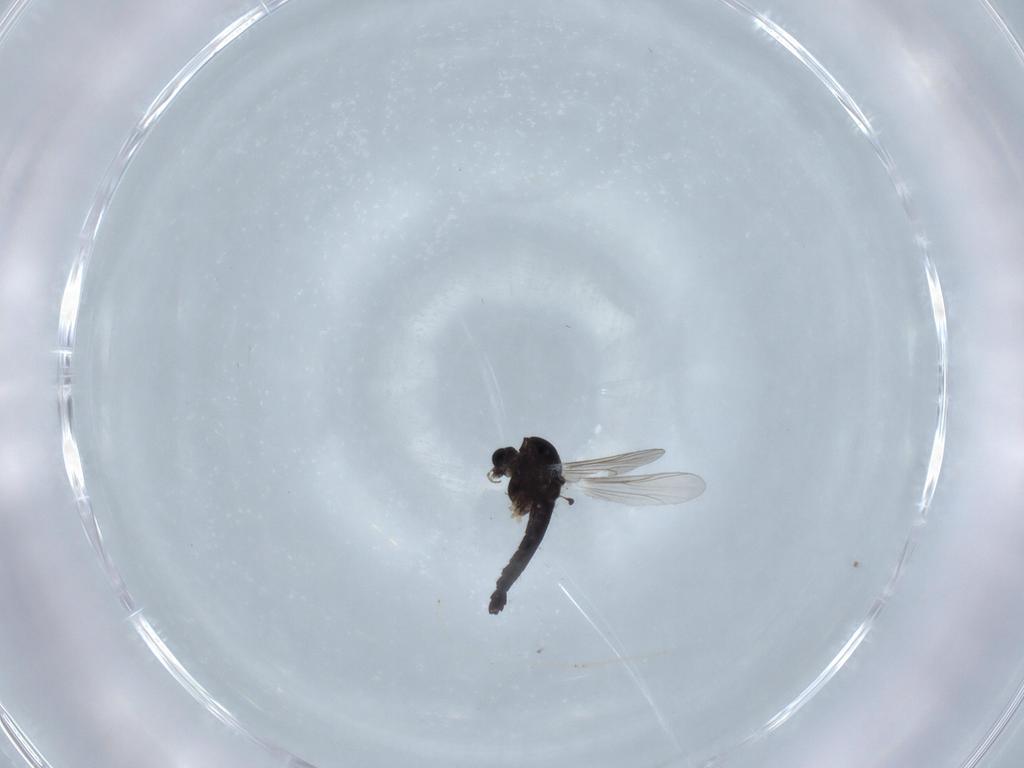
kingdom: Animalia
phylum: Arthropoda
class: Insecta
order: Diptera
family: Chironomidae
